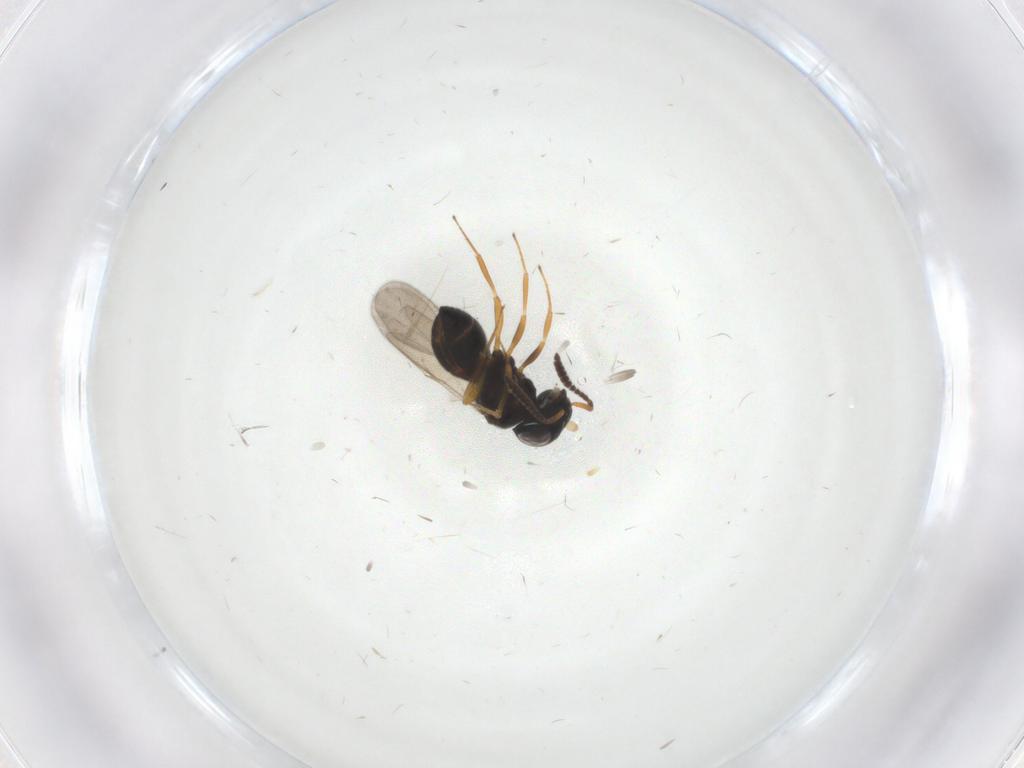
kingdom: Animalia
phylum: Arthropoda
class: Insecta
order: Hymenoptera
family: Scelionidae
